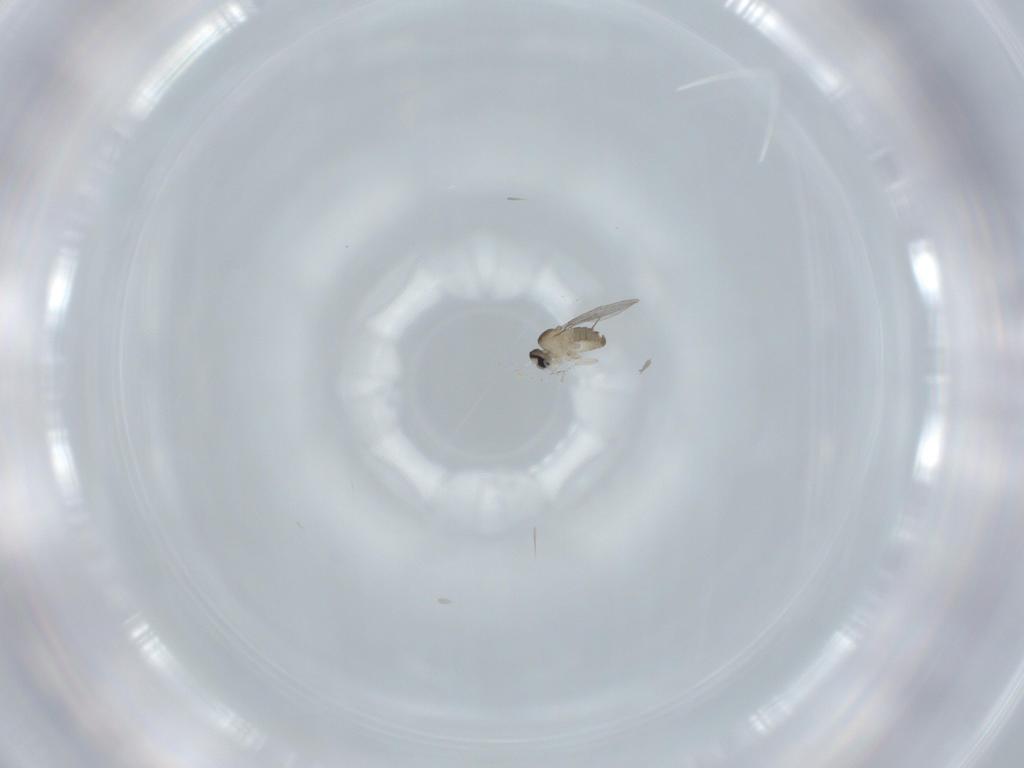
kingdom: Animalia
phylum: Arthropoda
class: Insecta
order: Diptera
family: Cecidomyiidae
